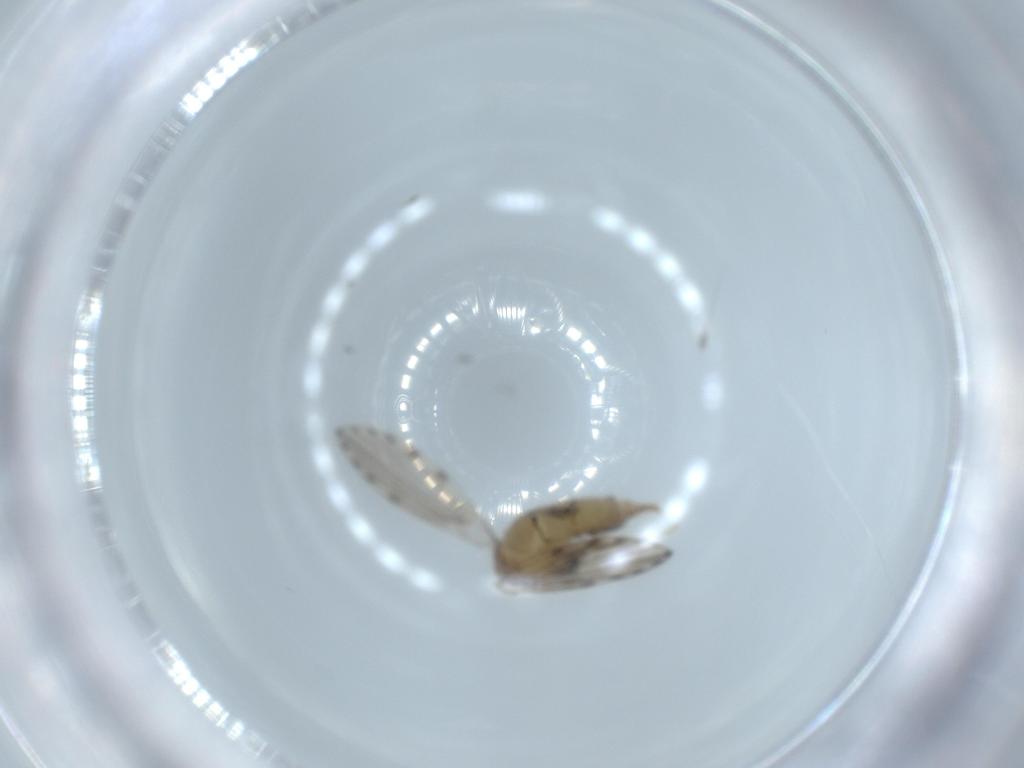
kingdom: Animalia
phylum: Arthropoda
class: Insecta
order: Diptera
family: Psychodidae
